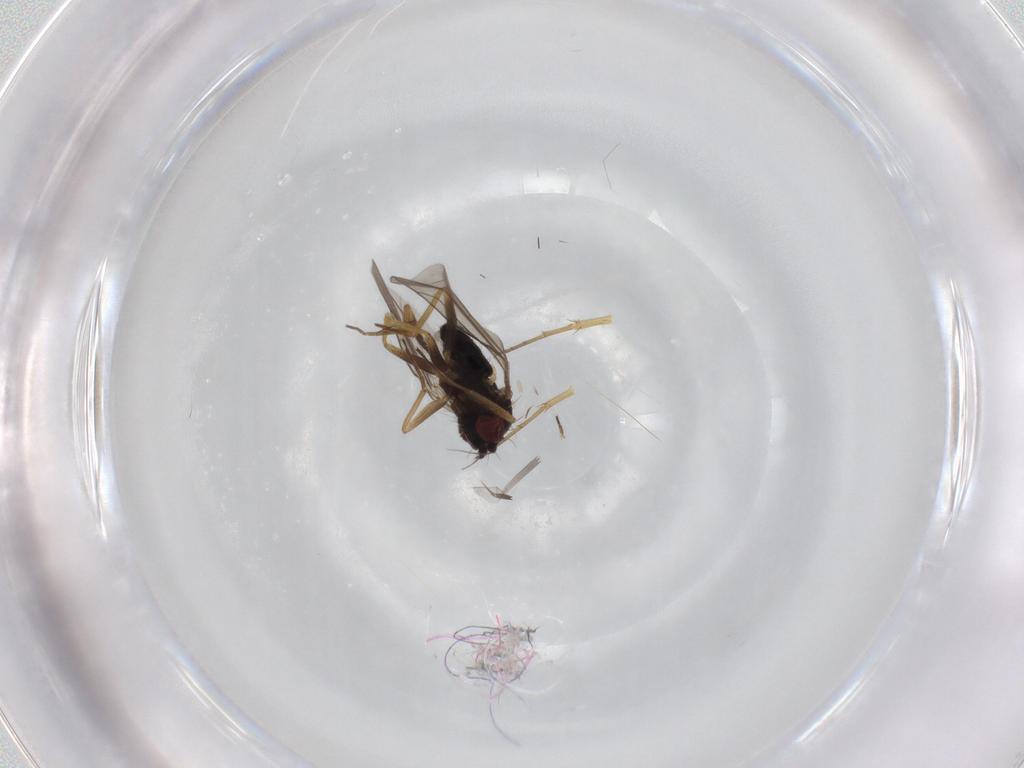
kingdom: Animalia
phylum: Arthropoda
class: Insecta
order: Diptera
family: Dolichopodidae
